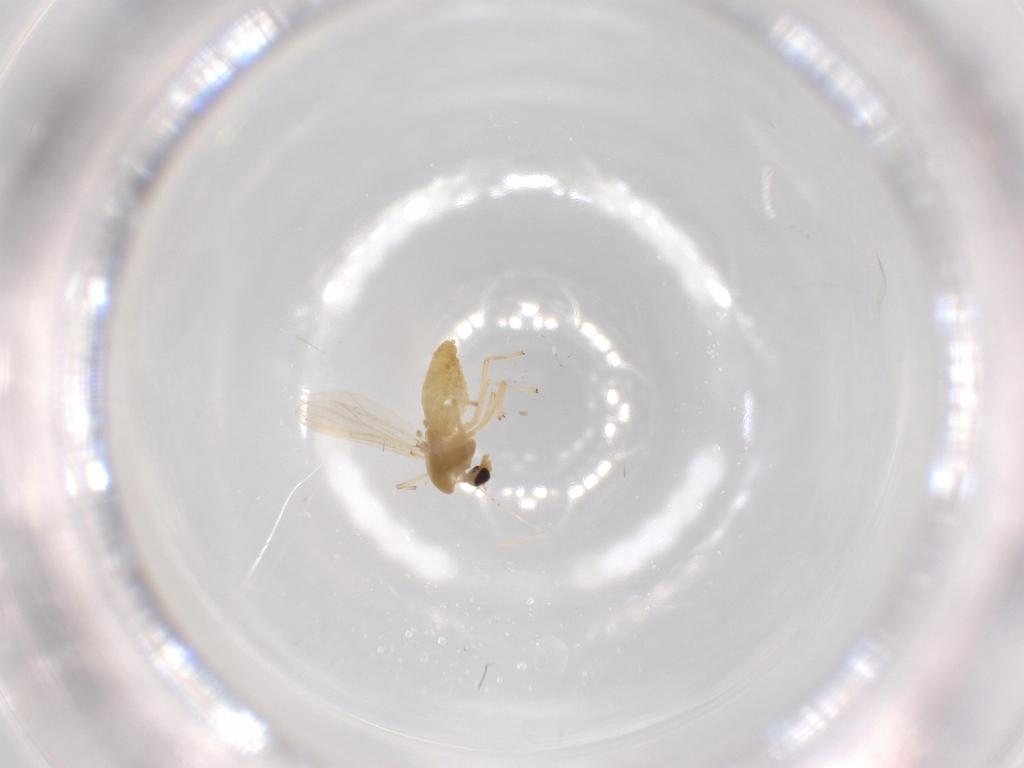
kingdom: Animalia
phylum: Arthropoda
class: Insecta
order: Diptera
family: Chironomidae
